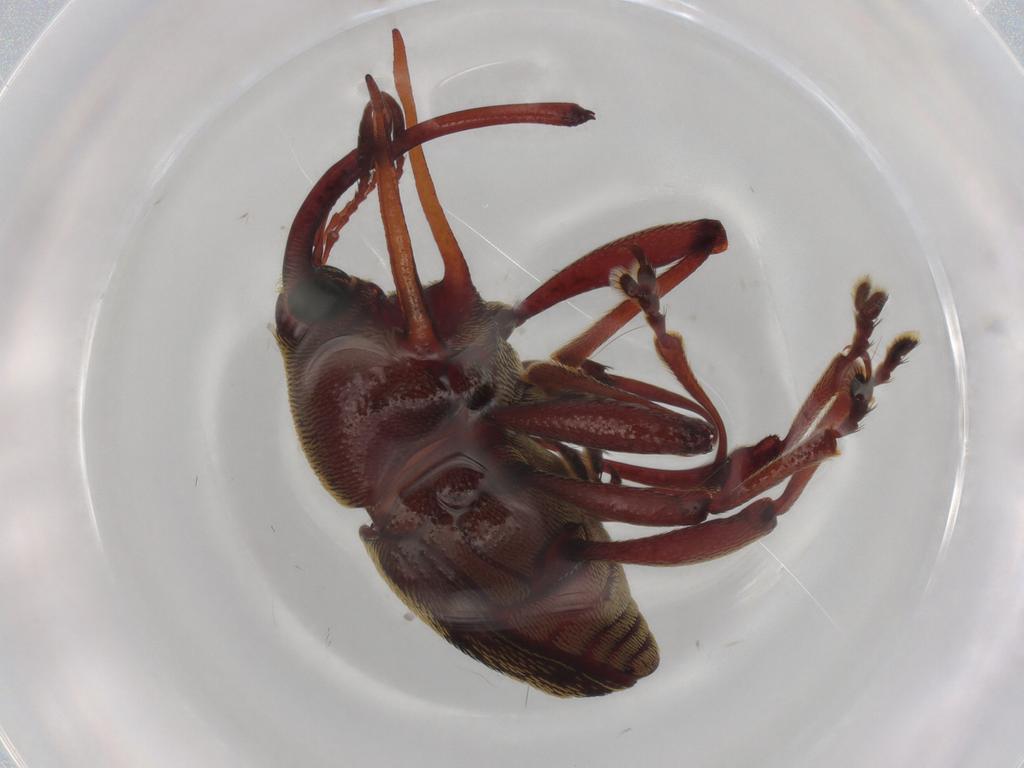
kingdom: Animalia
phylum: Arthropoda
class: Insecta
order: Coleoptera
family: Curculionidae
